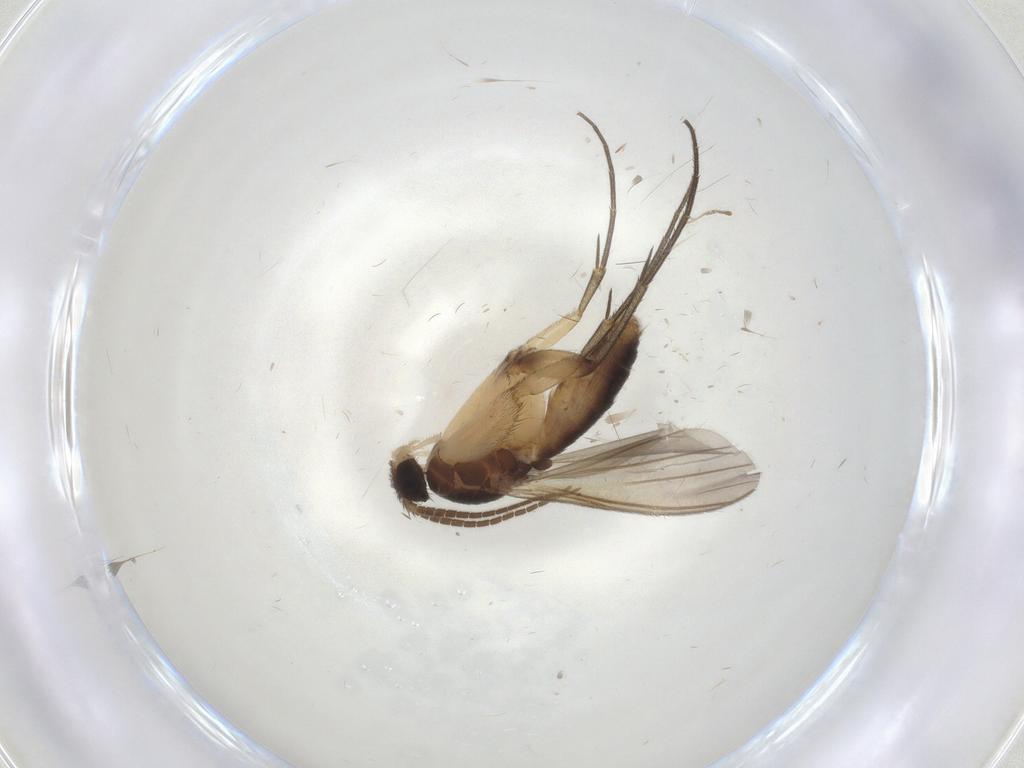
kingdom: Animalia
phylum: Arthropoda
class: Insecta
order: Diptera
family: Mycetophilidae
